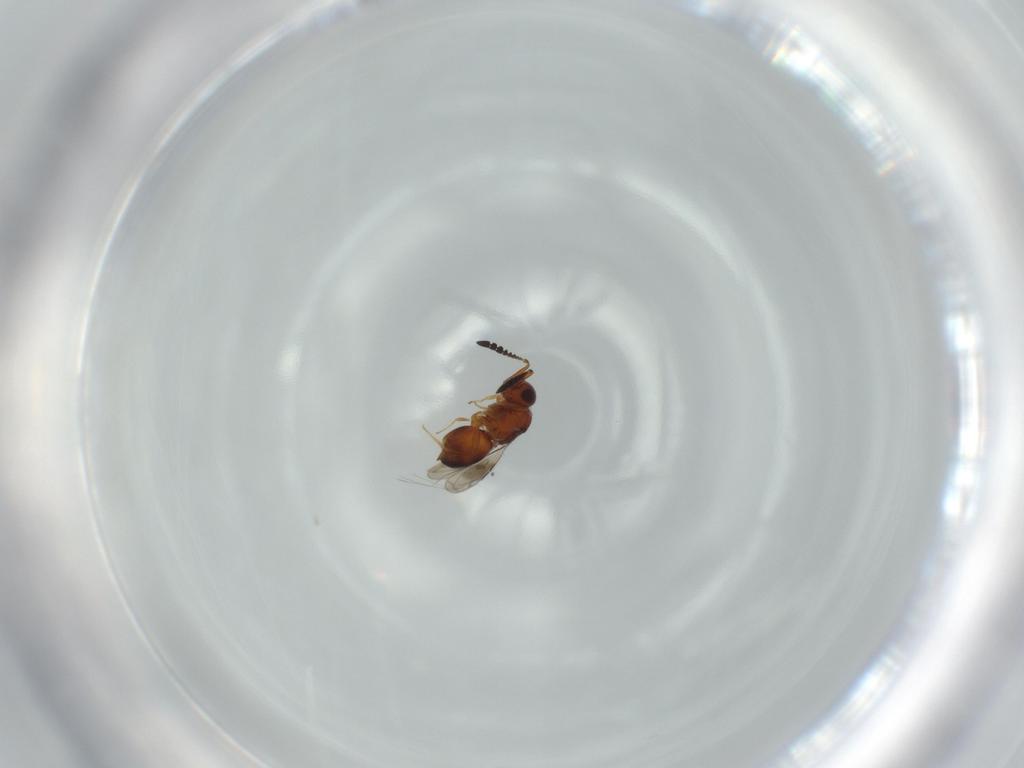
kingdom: Animalia
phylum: Arthropoda
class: Insecta
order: Hymenoptera
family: Ceraphronidae
